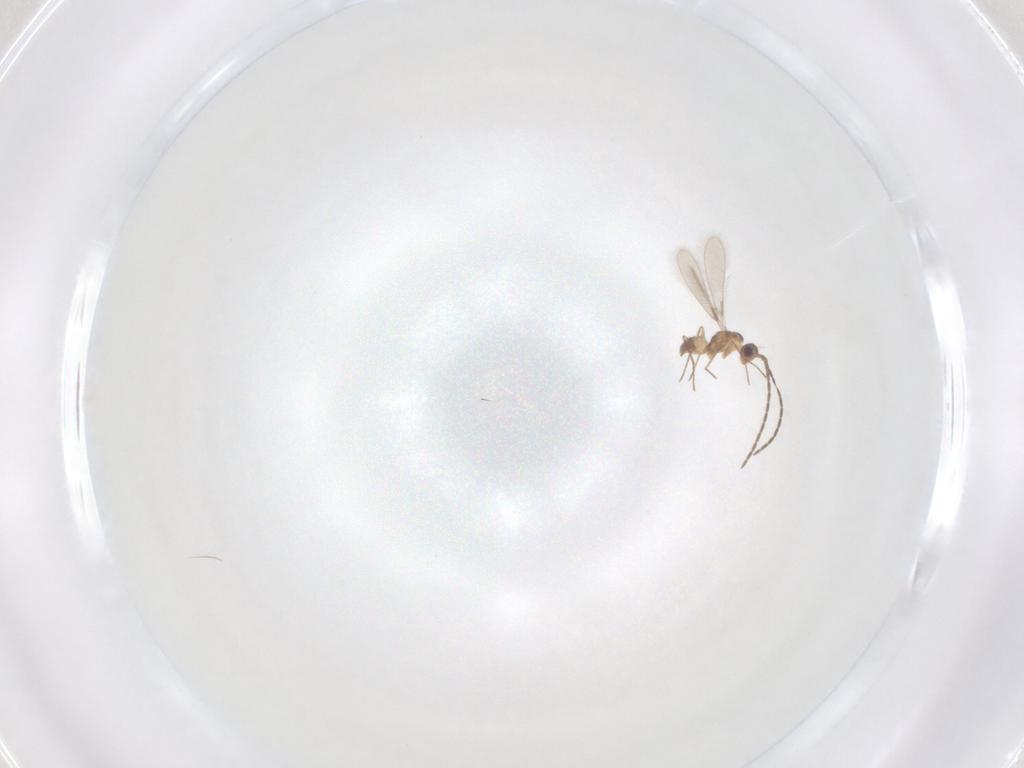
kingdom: Animalia
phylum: Arthropoda
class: Insecta
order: Hymenoptera
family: Mymaridae
